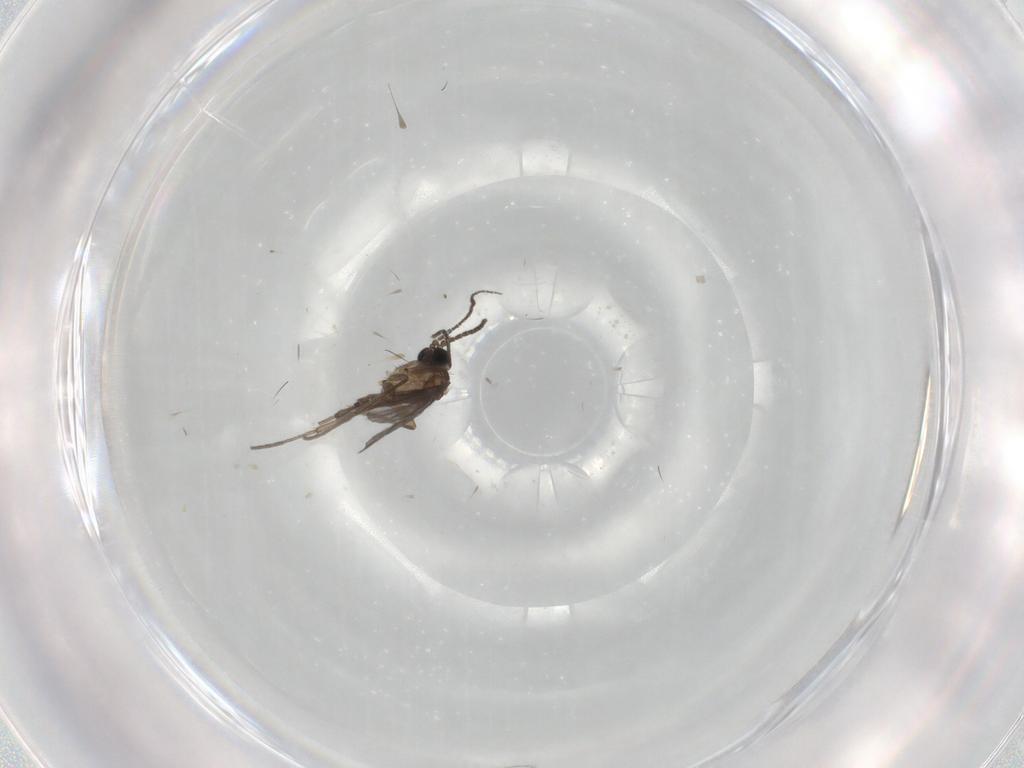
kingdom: Animalia
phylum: Arthropoda
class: Insecta
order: Diptera
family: Sciaridae
